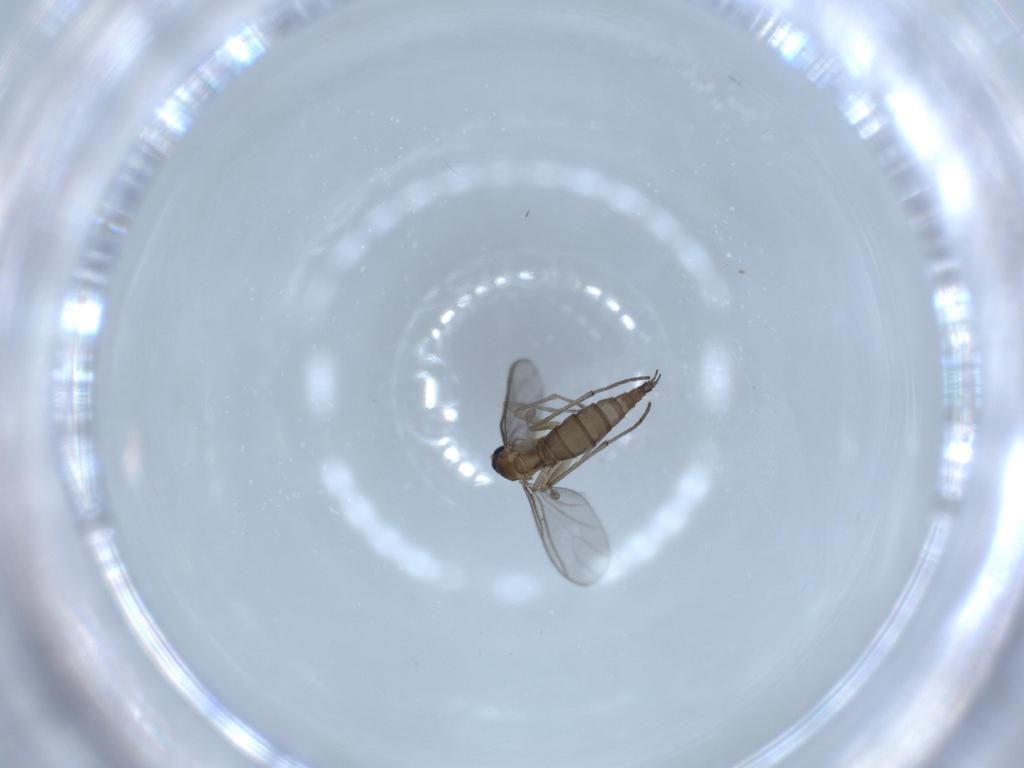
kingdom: Animalia
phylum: Arthropoda
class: Insecta
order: Diptera
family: Sciaridae
